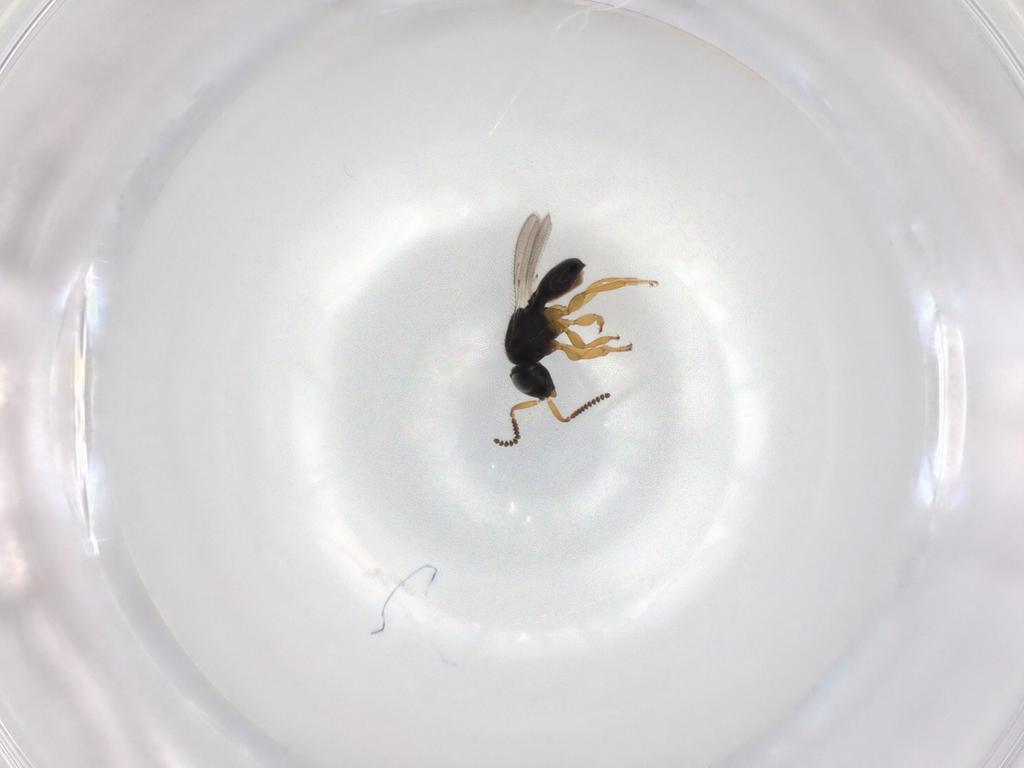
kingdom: Animalia
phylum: Arthropoda
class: Insecta
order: Hymenoptera
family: Scelionidae
